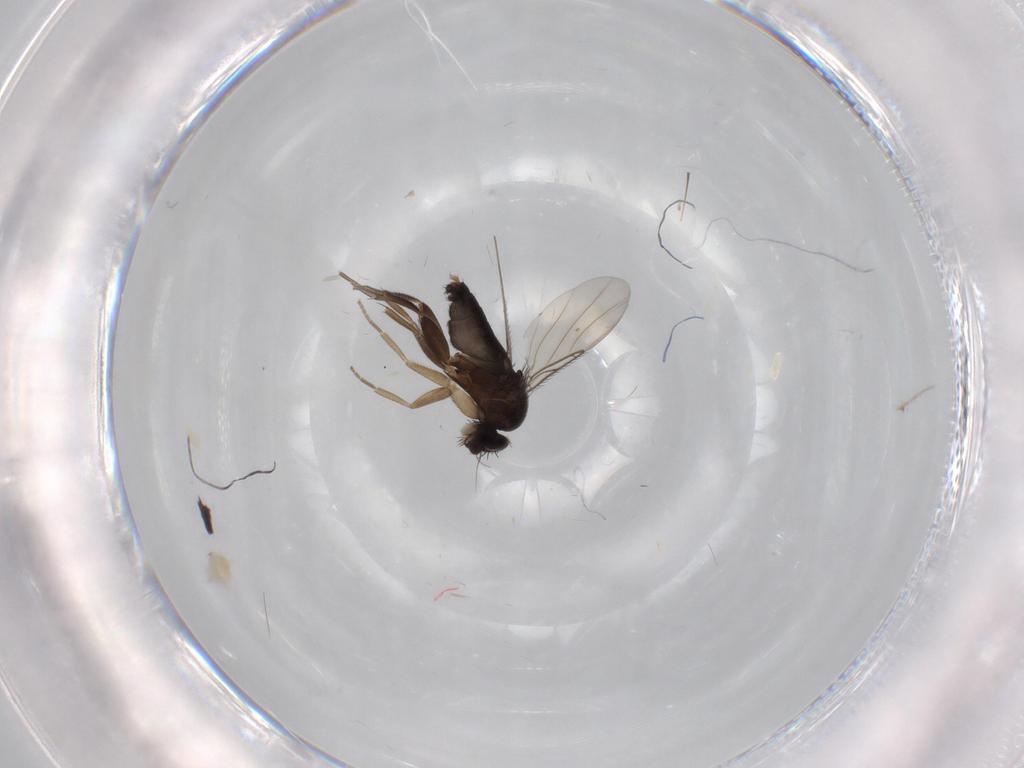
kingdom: Animalia
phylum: Arthropoda
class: Insecta
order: Diptera
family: Phoridae
